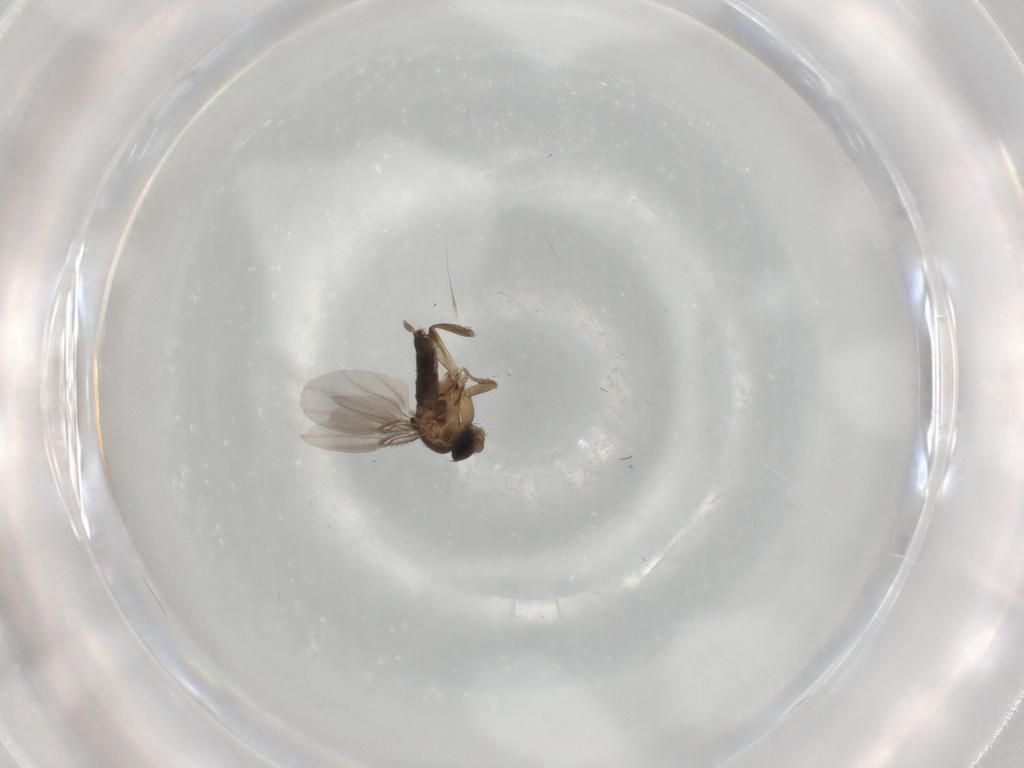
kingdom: Animalia
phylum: Arthropoda
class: Insecta
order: Diptera
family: Phoridae
